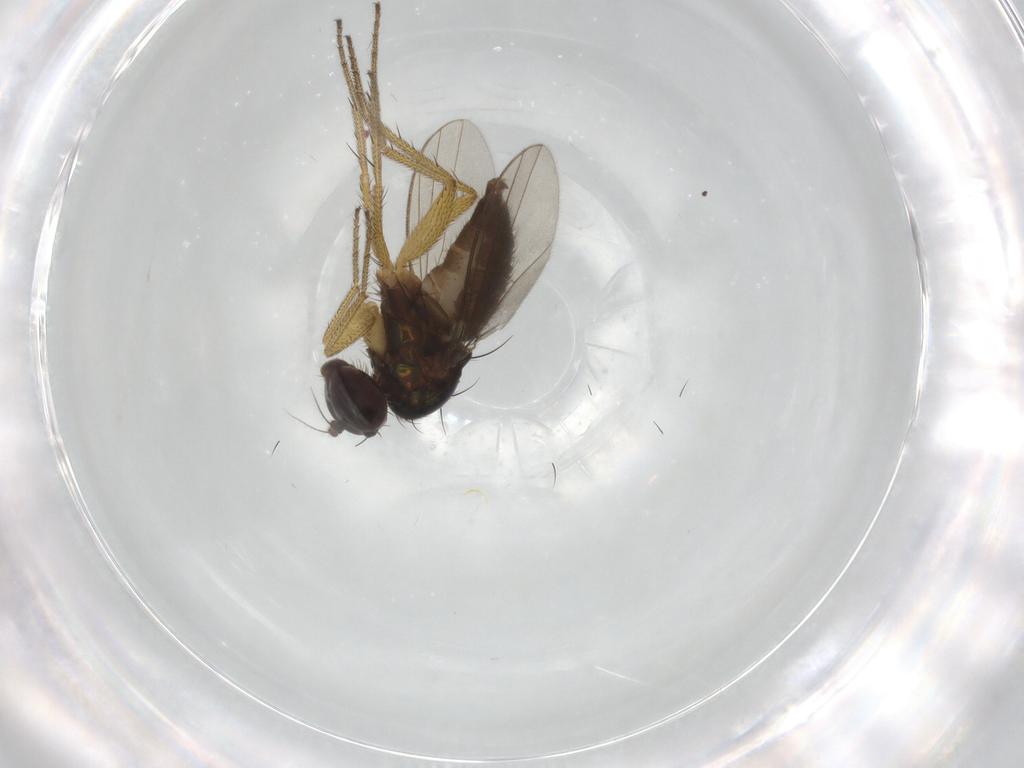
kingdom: Animalia
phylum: Arthropoda
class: Insecta
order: Diptera
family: Dolichopodidae
